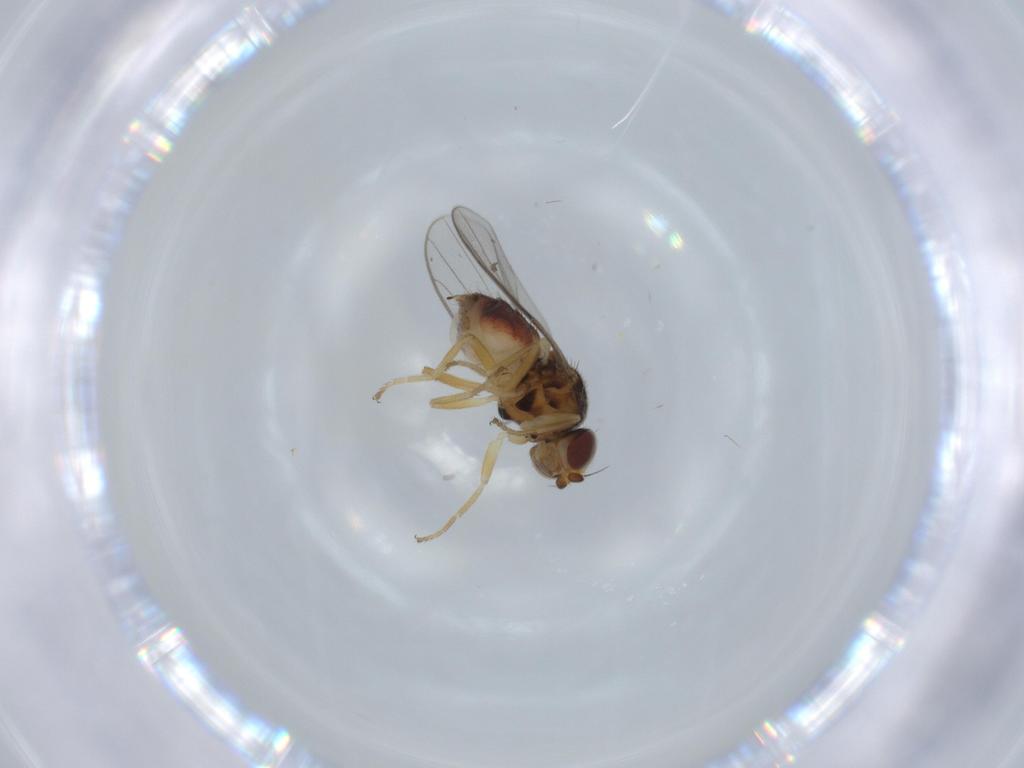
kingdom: Animalia
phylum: Arthropoda
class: Insecta
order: Diptera
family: Chloropidae
